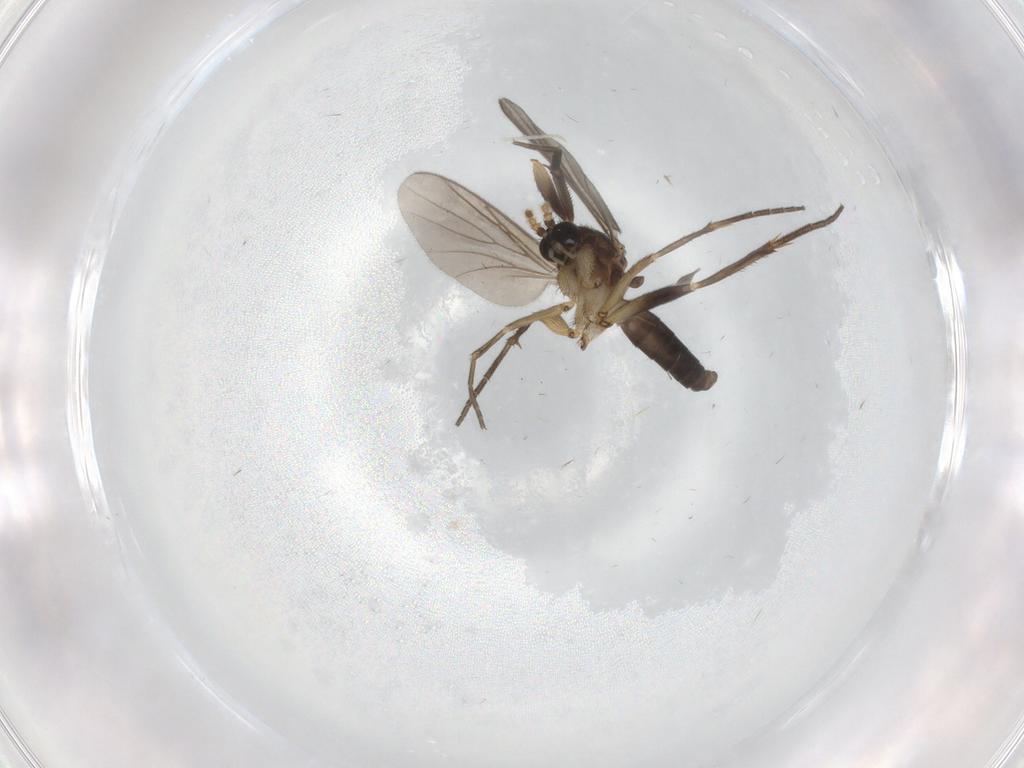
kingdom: Animalia
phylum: Arthropoda
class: Insecta
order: Diptera
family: Sciaridae
